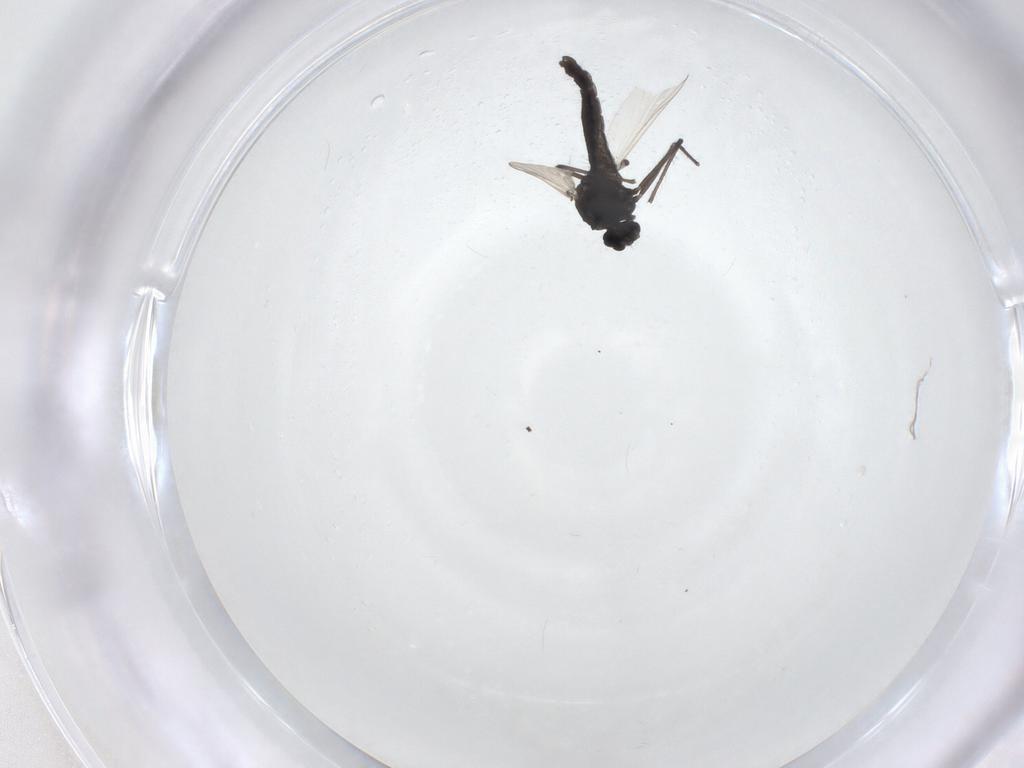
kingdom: Animalia
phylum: Arthropoda
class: Insecta
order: Diptera
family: Chironomidae
